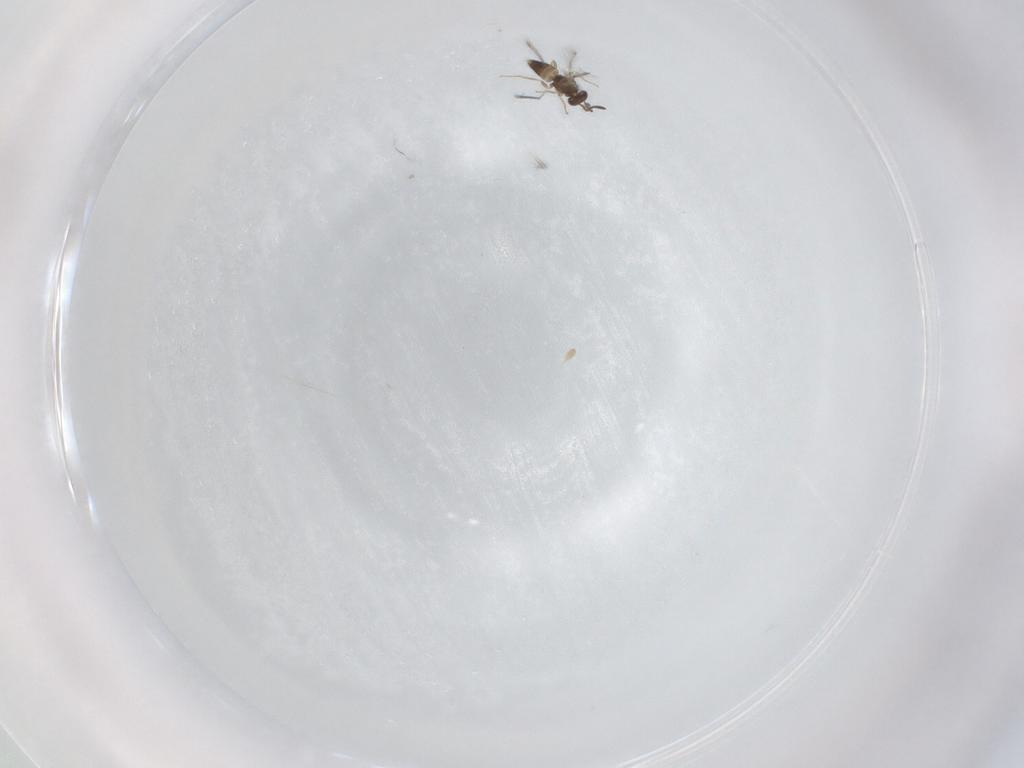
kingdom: Animalia
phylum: Arthropoda
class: Insecta
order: Hymenoptera
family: Mymaridae
